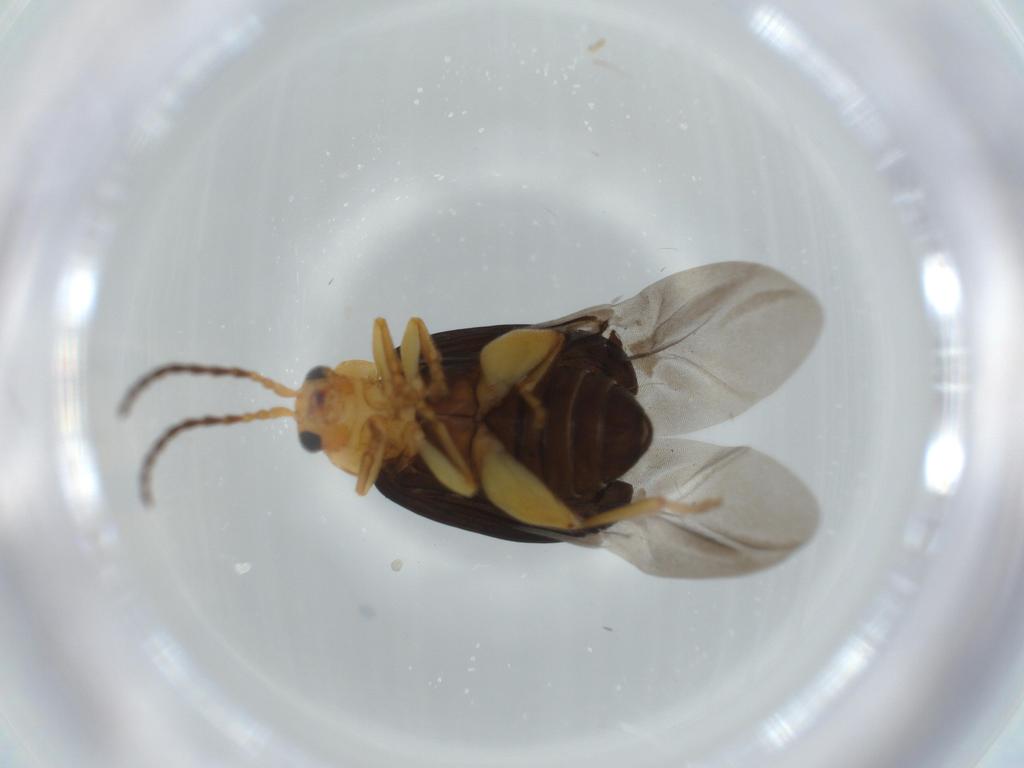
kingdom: Animalia
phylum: Arthropoda
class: Insecta
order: Coleoptera
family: Chrysomelidae
